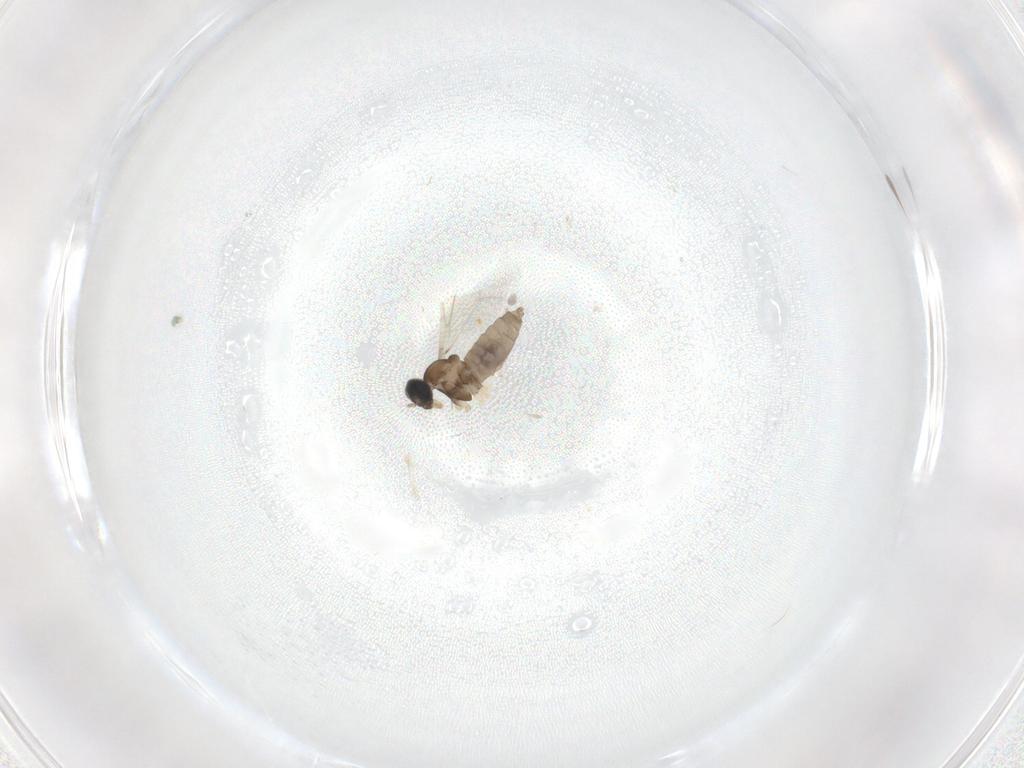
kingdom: Animalia
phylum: Arthropoda
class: Insecta
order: Diptera
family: Cecidomyiidae
